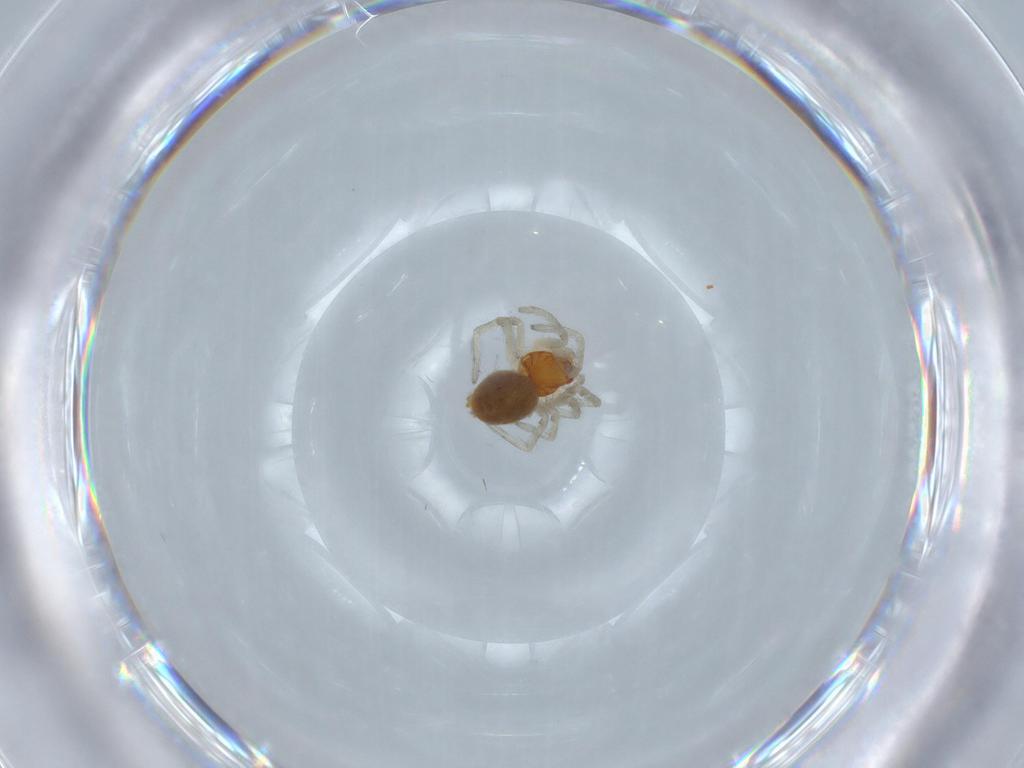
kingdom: Animalia
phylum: Arthropoda
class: Arachnida
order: Araneae
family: Dictynidae
